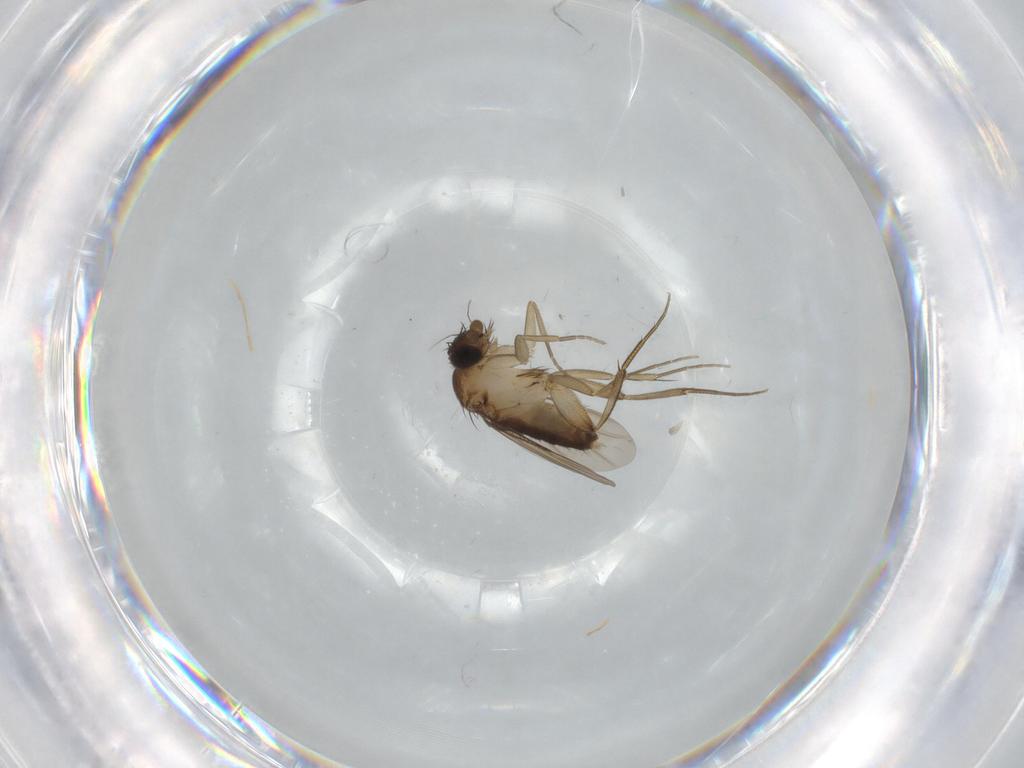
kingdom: Animalia
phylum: Arthropoda
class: Insecta
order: Diptera
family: Phoridae
